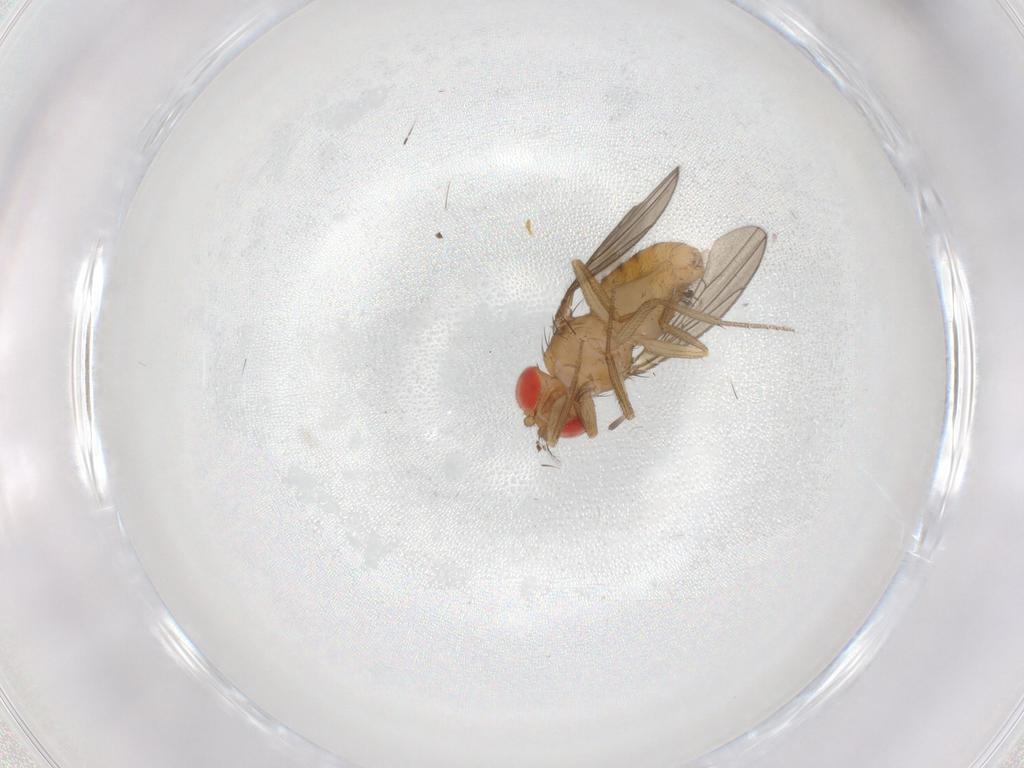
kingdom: Animalia
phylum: Arthropoda
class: Insecta
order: Diptera
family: Drosophilidae
